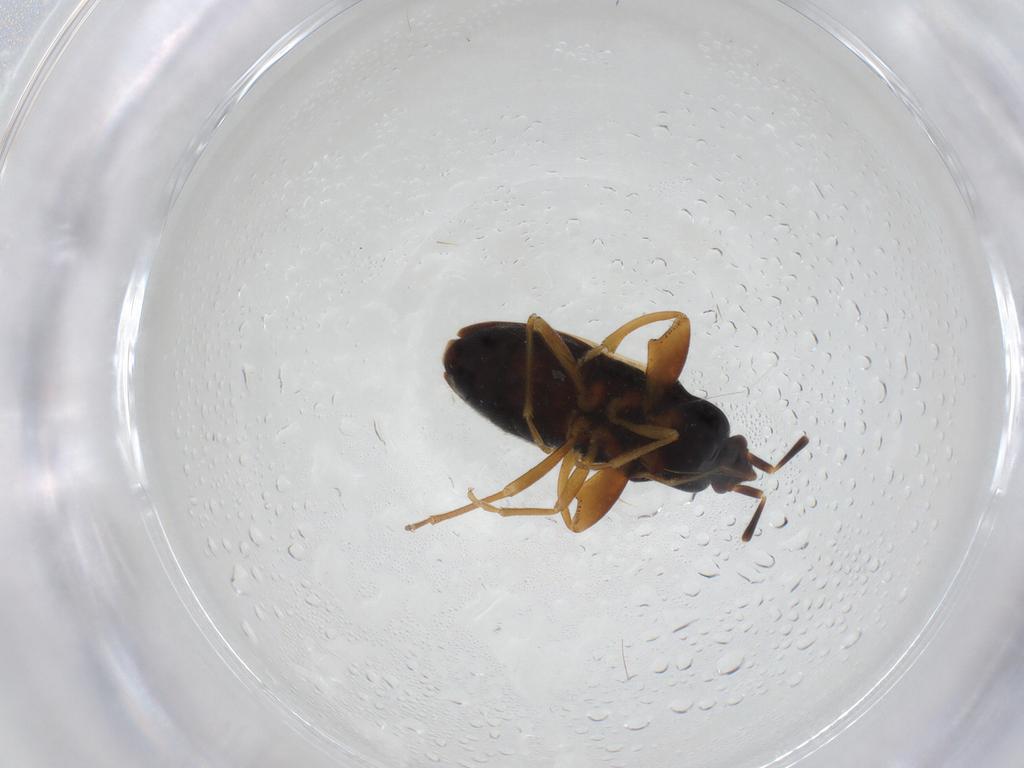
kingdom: Animalia
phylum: Arthropoda
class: Insecta
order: Hemiptera
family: Rhyparochromidae
